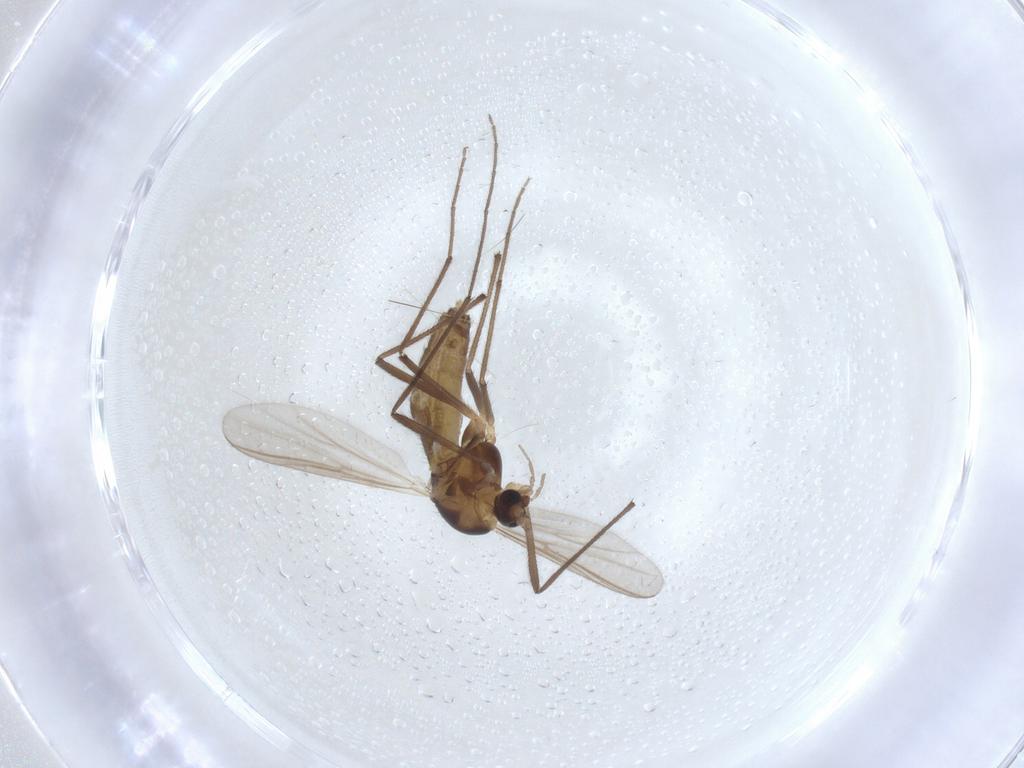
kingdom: Animalia
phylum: Arthropoda
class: Insecta
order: Diptera
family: Chironomidae
